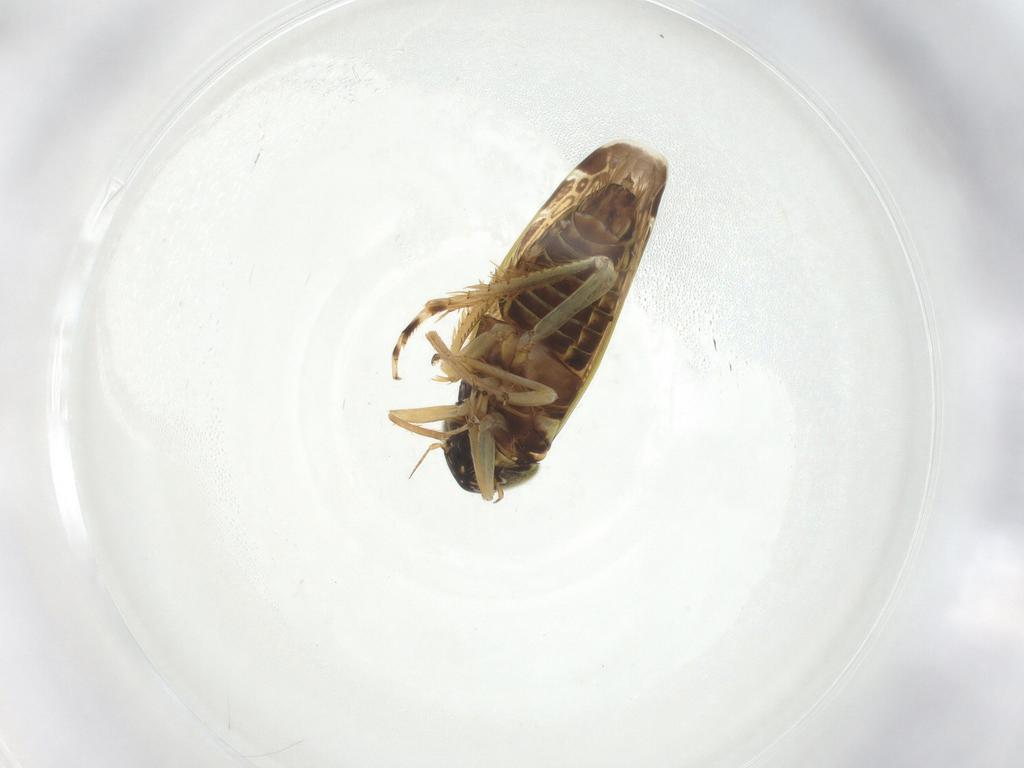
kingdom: Animalia
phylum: Arthropoda
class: Insecta
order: Hemiptera
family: Cicadellidae
